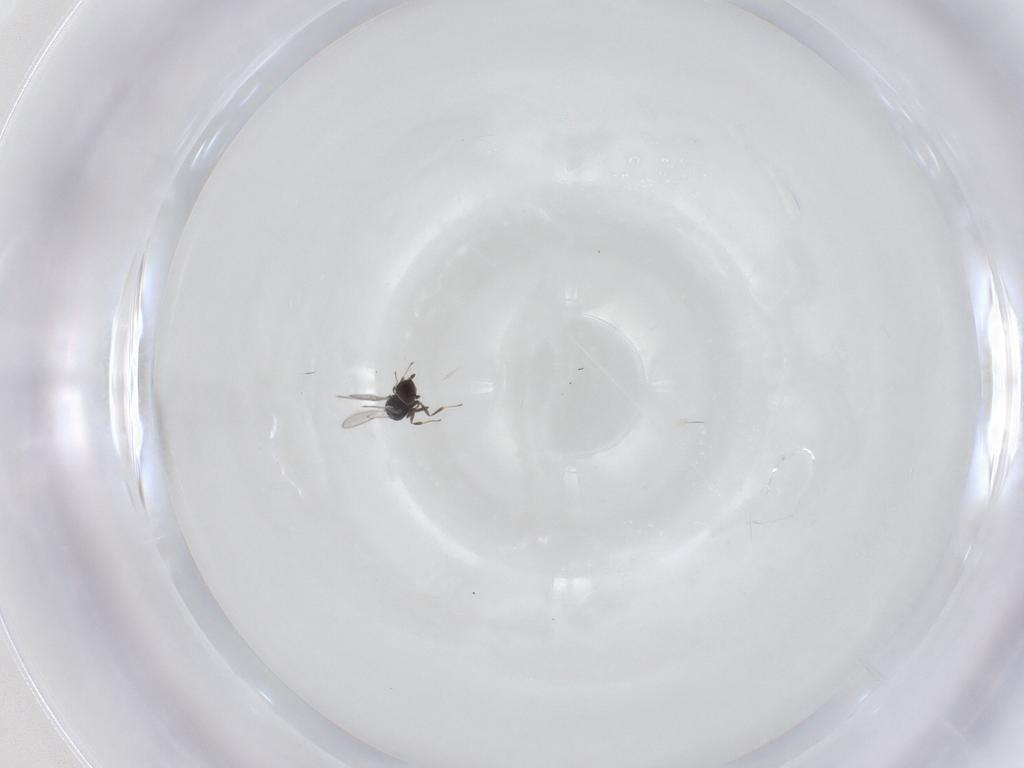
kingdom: Animalia
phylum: Arthropoda
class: Insecta
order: Hymenoptera
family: Scelionidae
